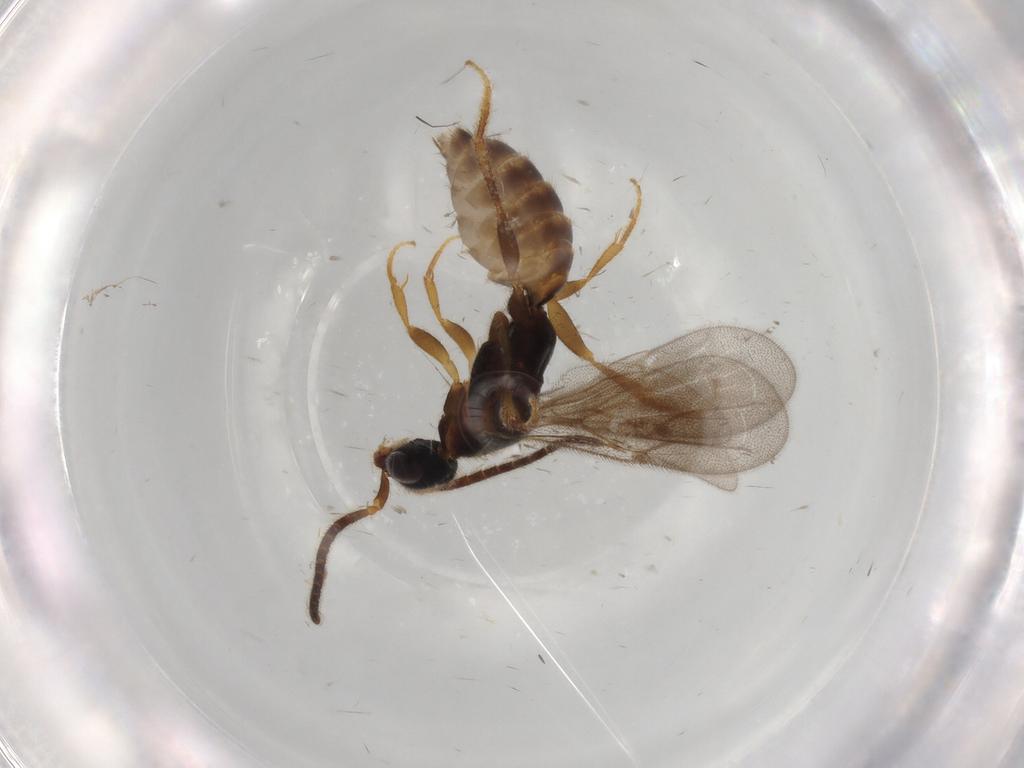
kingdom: Animalia
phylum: Arthropoda
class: Insecta
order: Hymenoptera
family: Bethylidae
